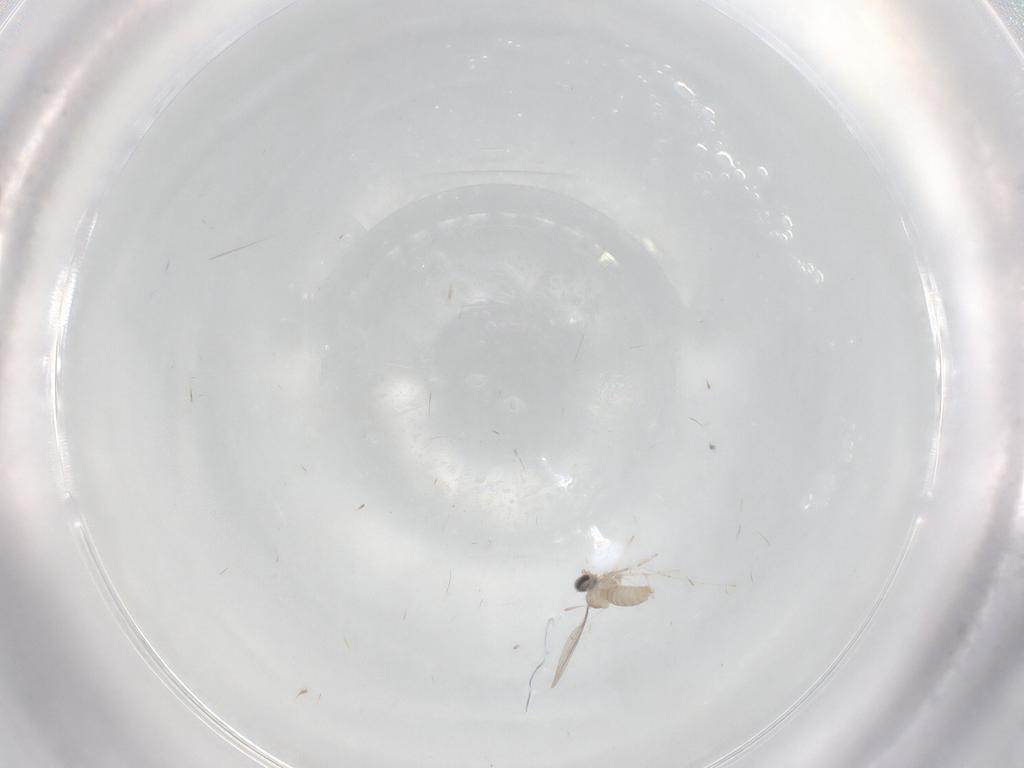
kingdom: Animalia
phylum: Arthropoda
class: Insecta
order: Diptera
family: Cecidomyiidae
